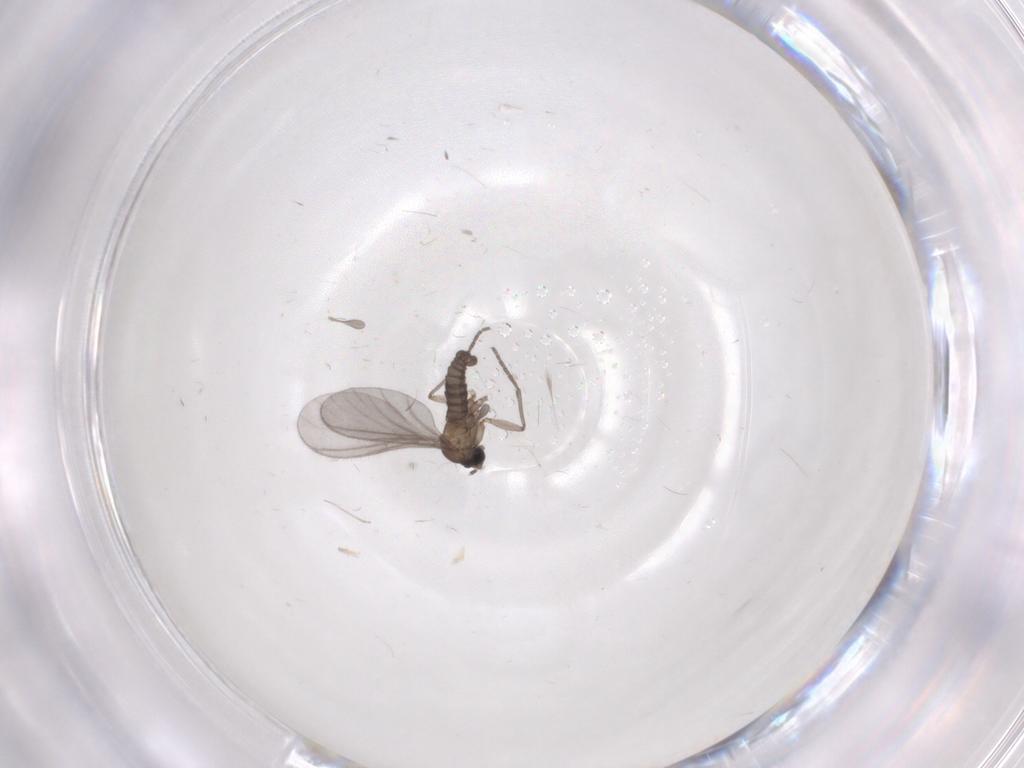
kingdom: Animalia
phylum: Arthropoda
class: Insecta
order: Diptera
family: Sciaridae
